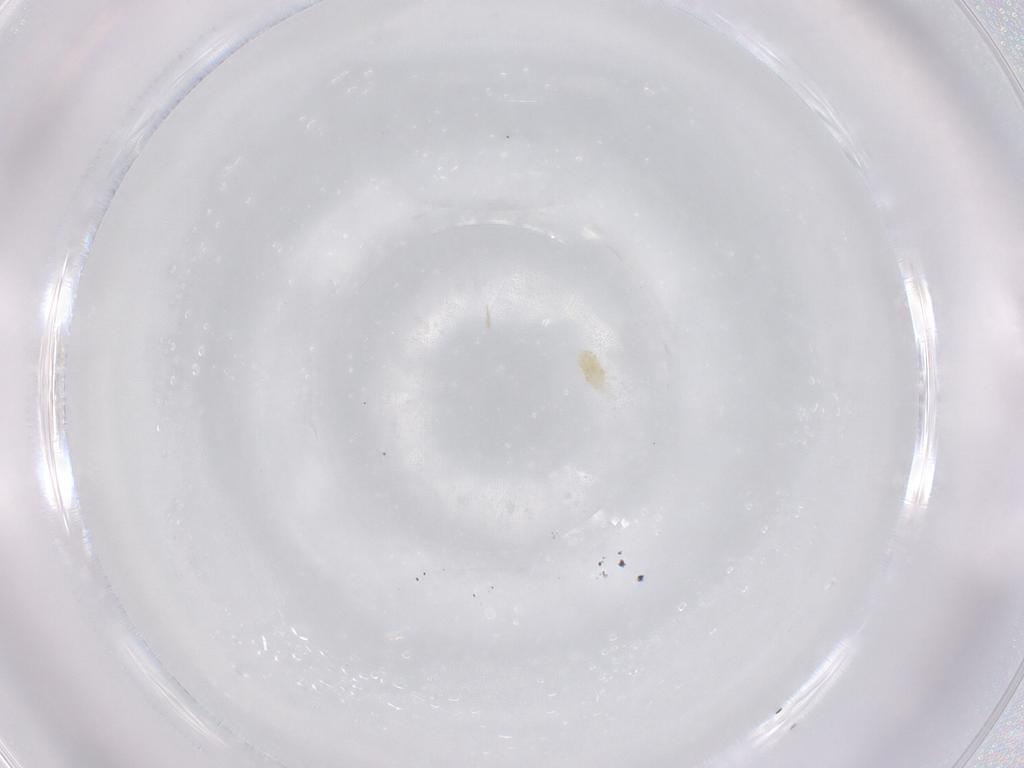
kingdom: Animalia
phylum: Arthropoda
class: Arachnida
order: Trombidiformes
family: Eupodidae
